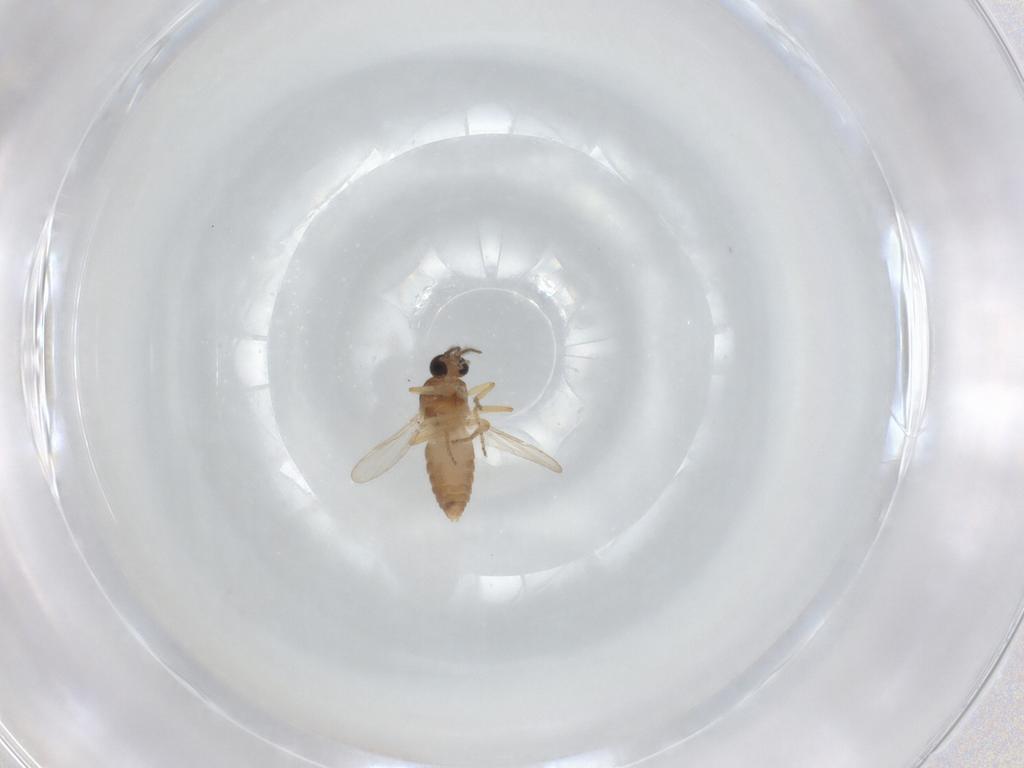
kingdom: Animalia
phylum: Arthropoda
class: Insecta
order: Diptera
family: Ceratopogonidae
